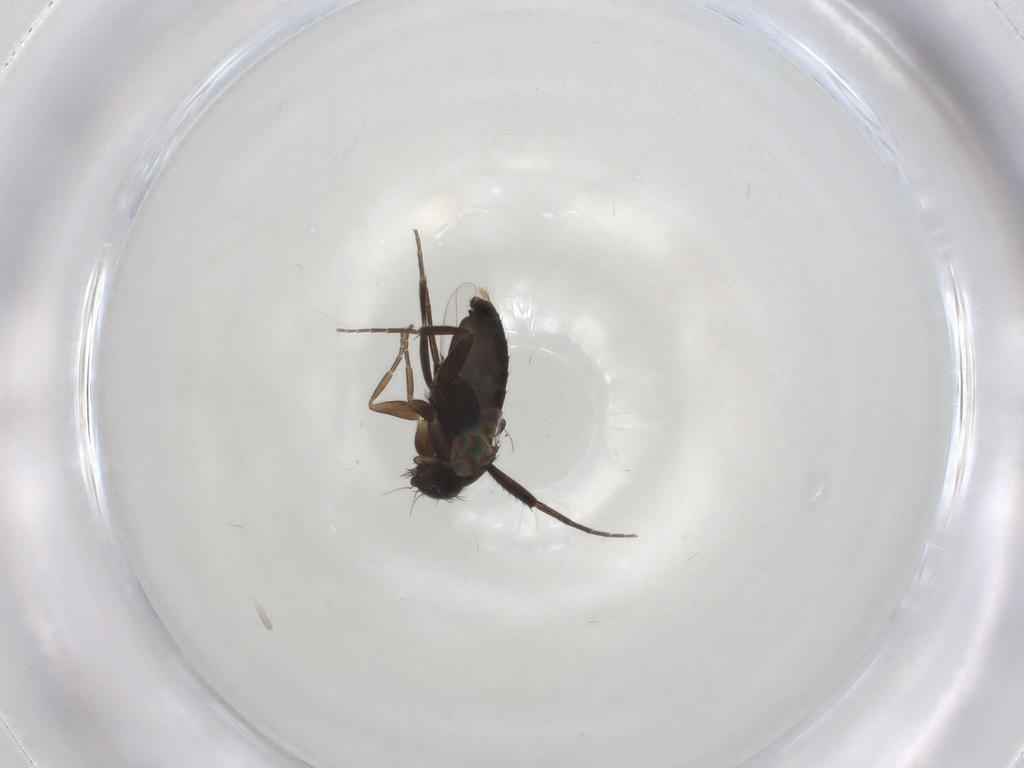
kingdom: Animalia
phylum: Arthropoda
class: Insecta
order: Diptera
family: Phoridae
